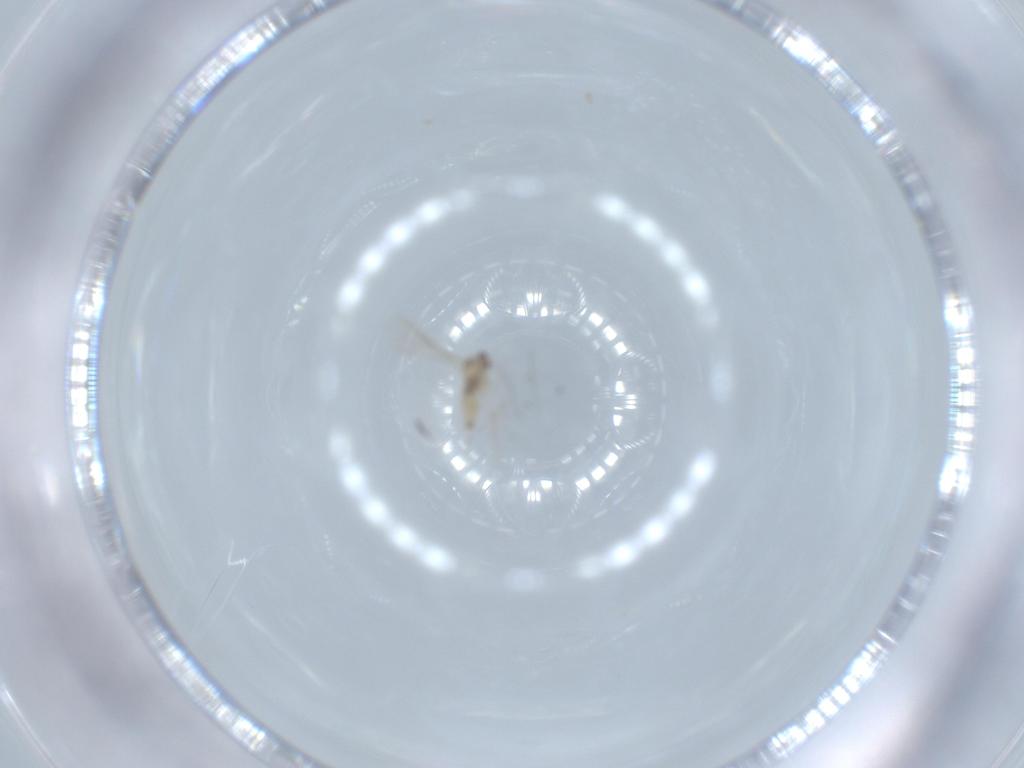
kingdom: Animalia
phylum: Arthropoda
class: Insecta
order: Diptera
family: Cecidomyiidae
